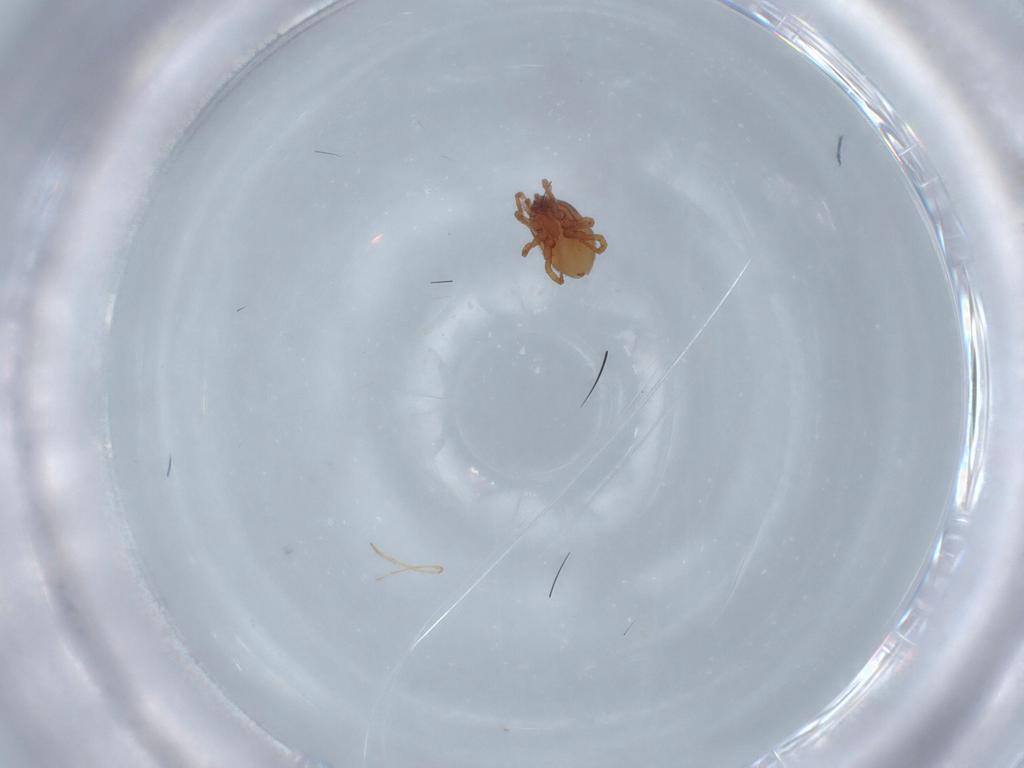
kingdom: Animalia
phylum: Arthropoda
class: Arachnida
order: Mesostigmata
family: Parasitidae
